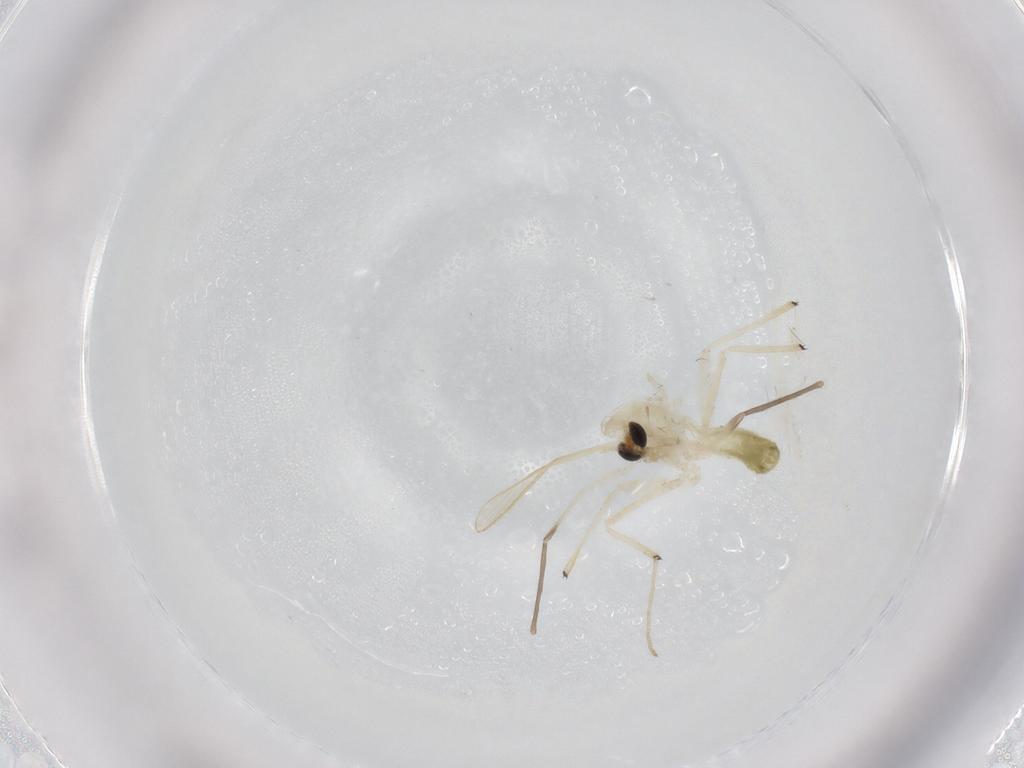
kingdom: Animalia
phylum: Arthropoda
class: Insecta
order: Diptera
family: Chironomidae
